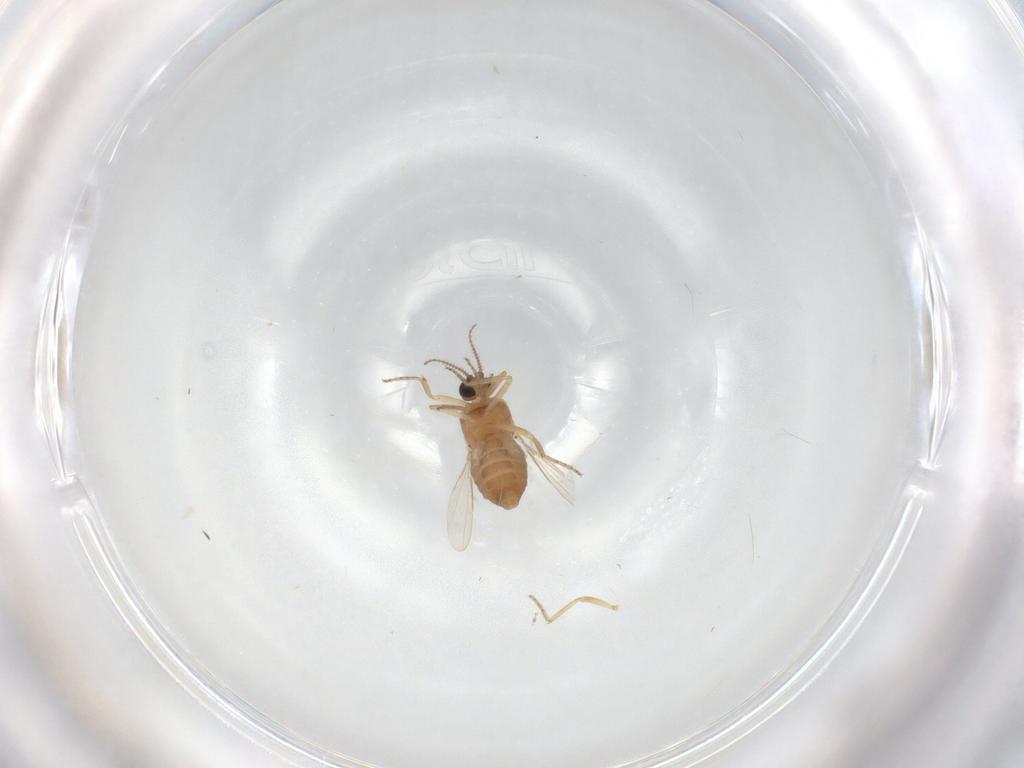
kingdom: Animalia
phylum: Arthropoda
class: Insecta
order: Diptera
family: Ceratopogonidae
